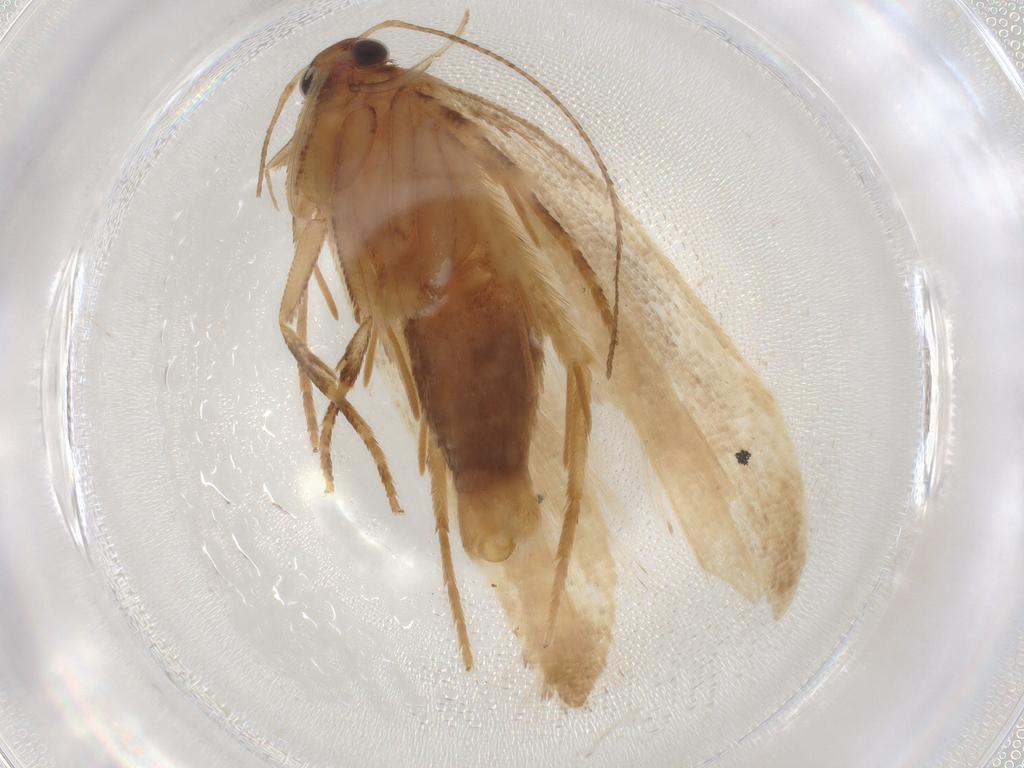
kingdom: Animalia
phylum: Arthropoda
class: Insecta
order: Lepidoptera
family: Gelechiidae
